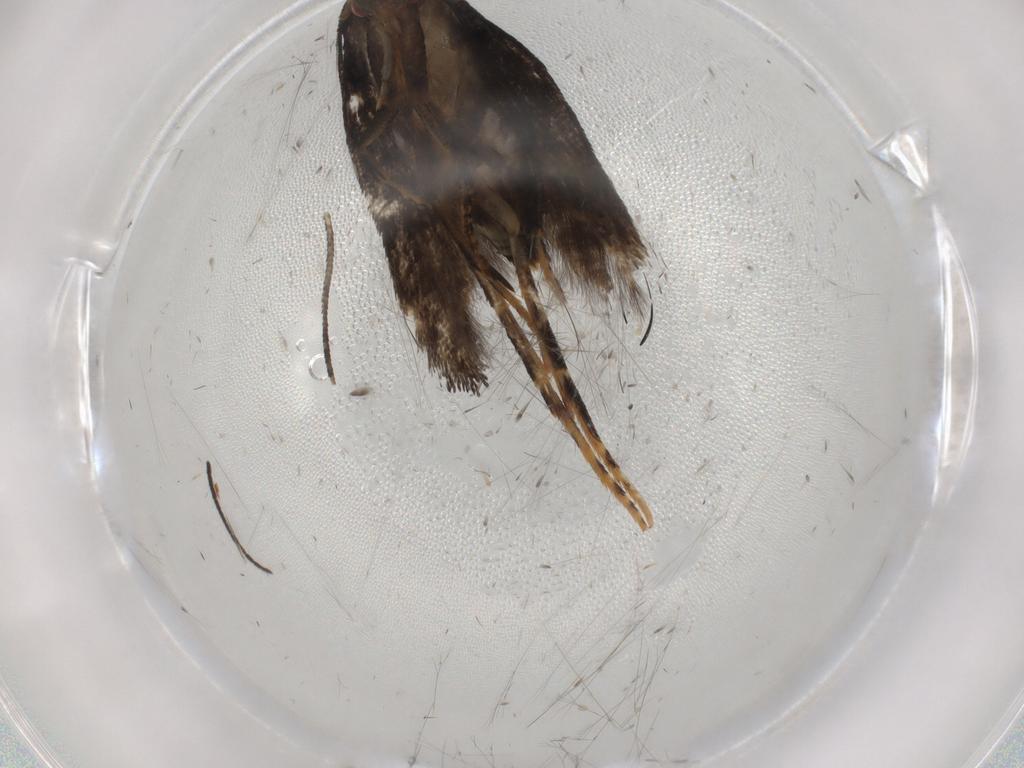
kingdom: Animalia
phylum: Arthropoda
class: Insecta
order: Lepidoptera
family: Momphidae
